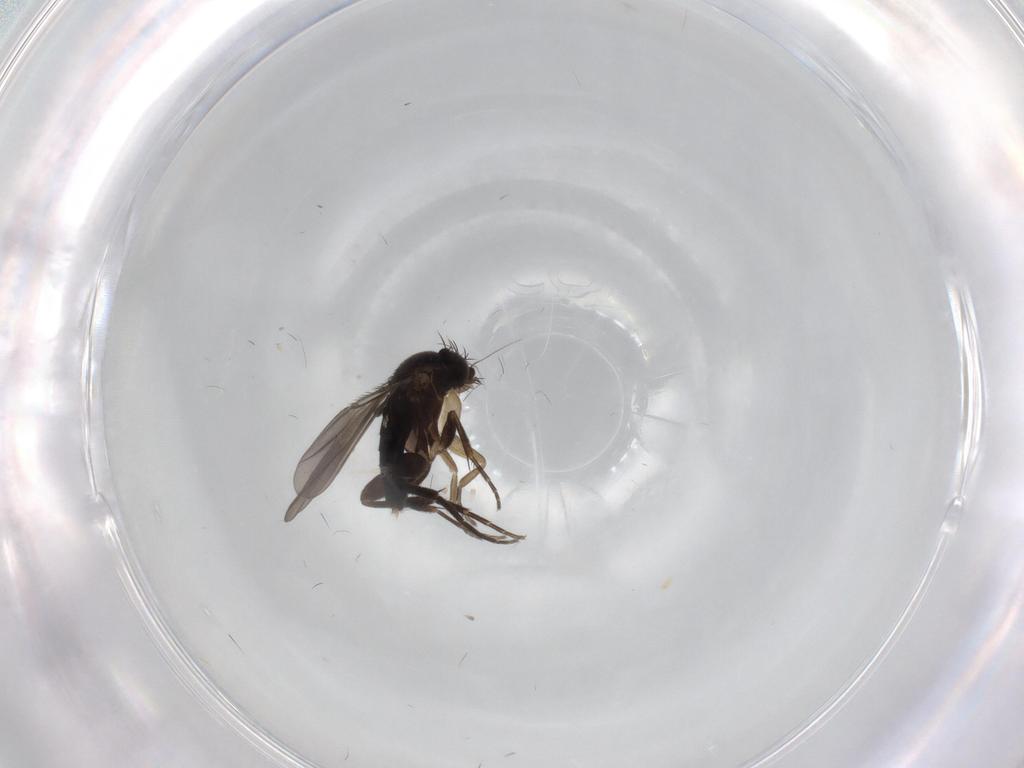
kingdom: Animalia
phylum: Arthropoda
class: Insecta
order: Diptera
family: Phoridae
